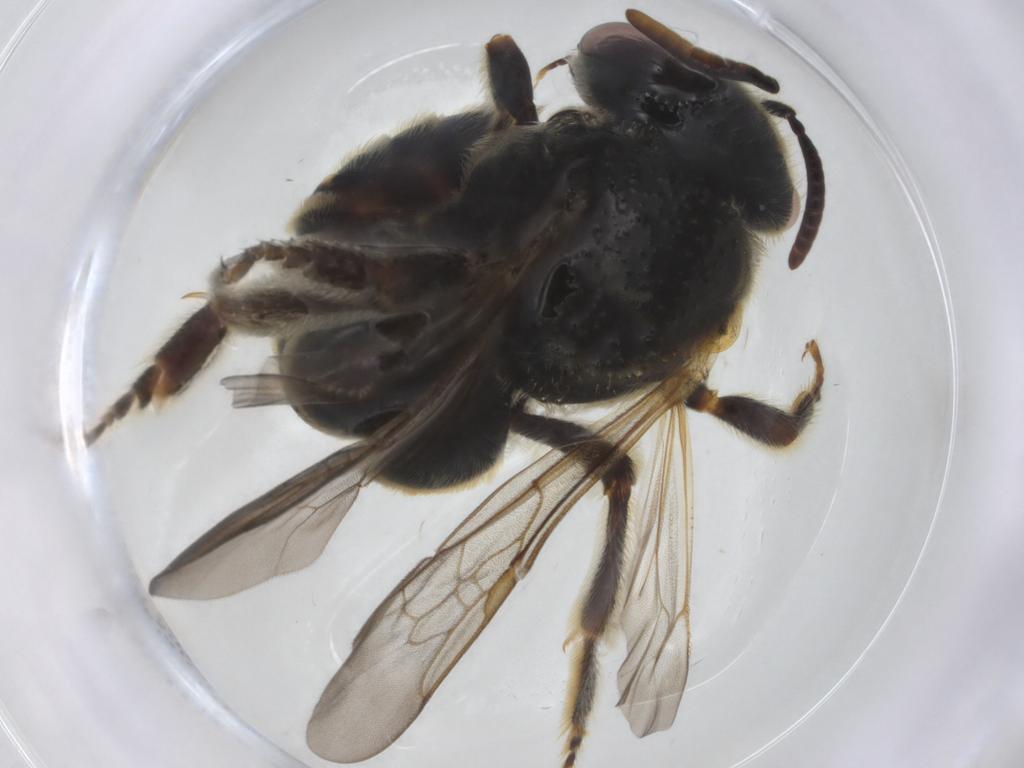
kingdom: Animalia
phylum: Arthropoda
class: Insecta
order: Hymenoptera
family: Halictidae
